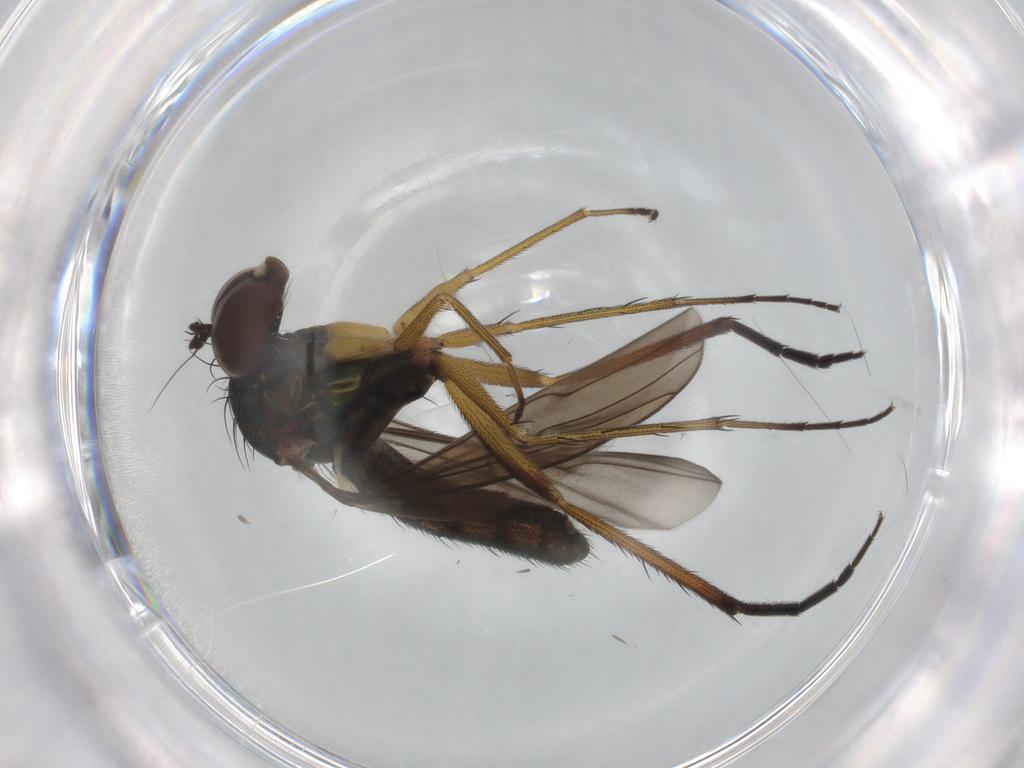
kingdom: Animalia
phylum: Arthropoda
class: Insecta
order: Diptera
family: Dolichopodidae
